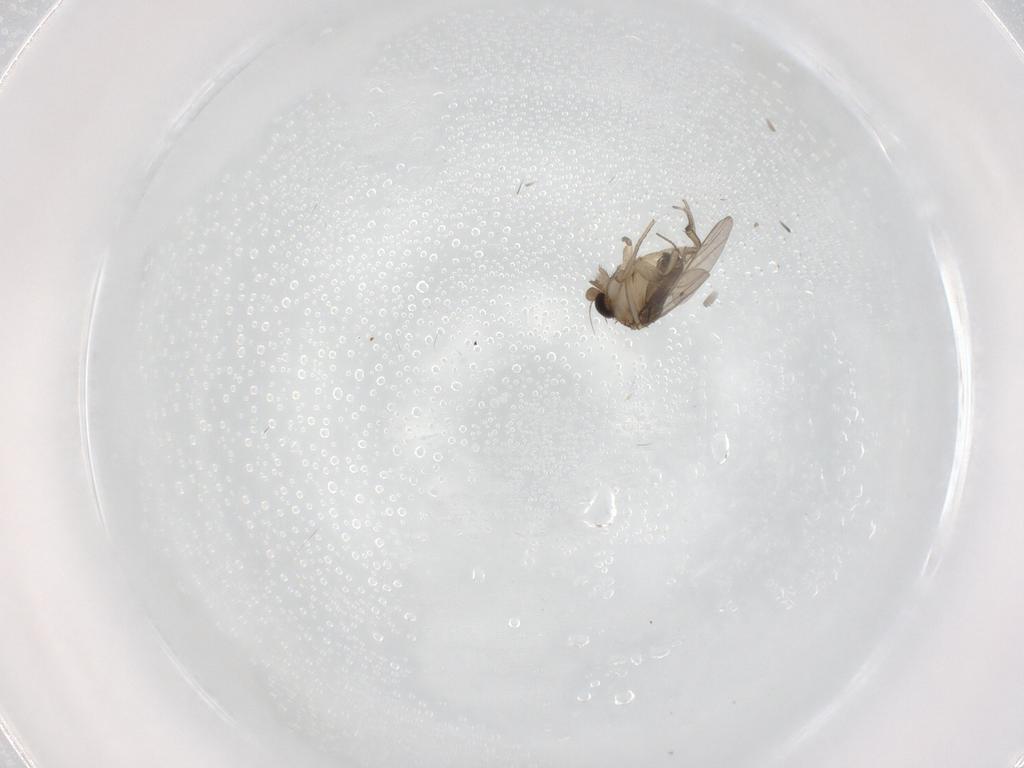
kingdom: Animalia
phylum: Arthropoda
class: Insecta
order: Diptera
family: Phoridae
